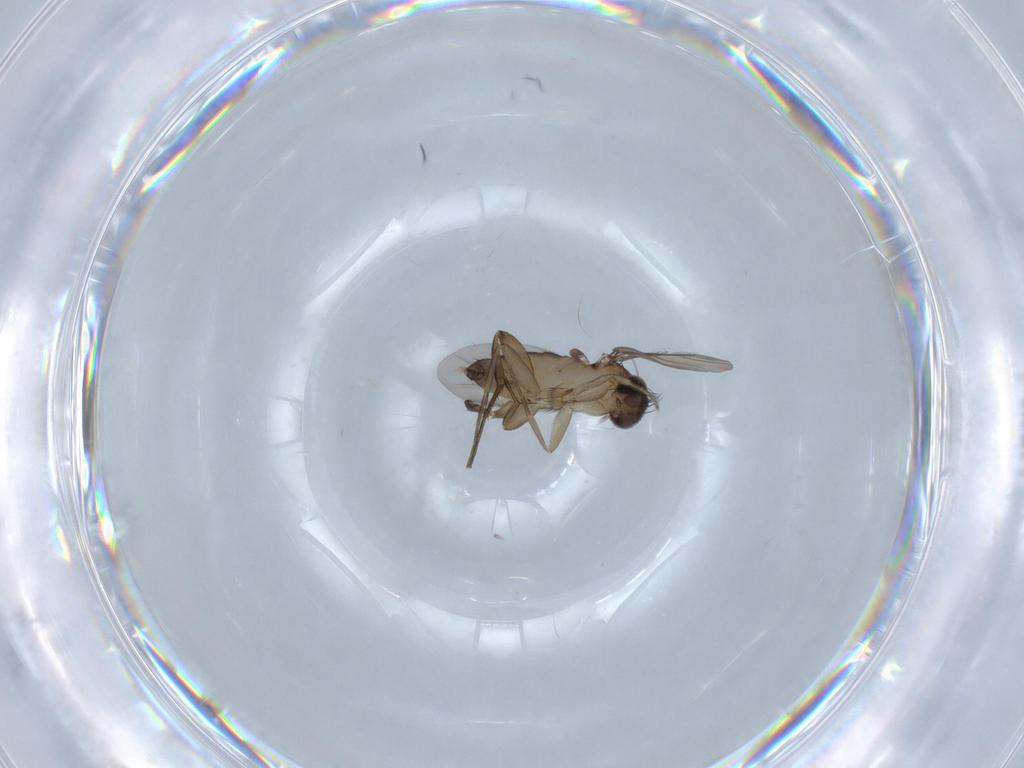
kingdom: Animalia
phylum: Arthropoda
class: Insecta
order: Diptera
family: Phoridae
